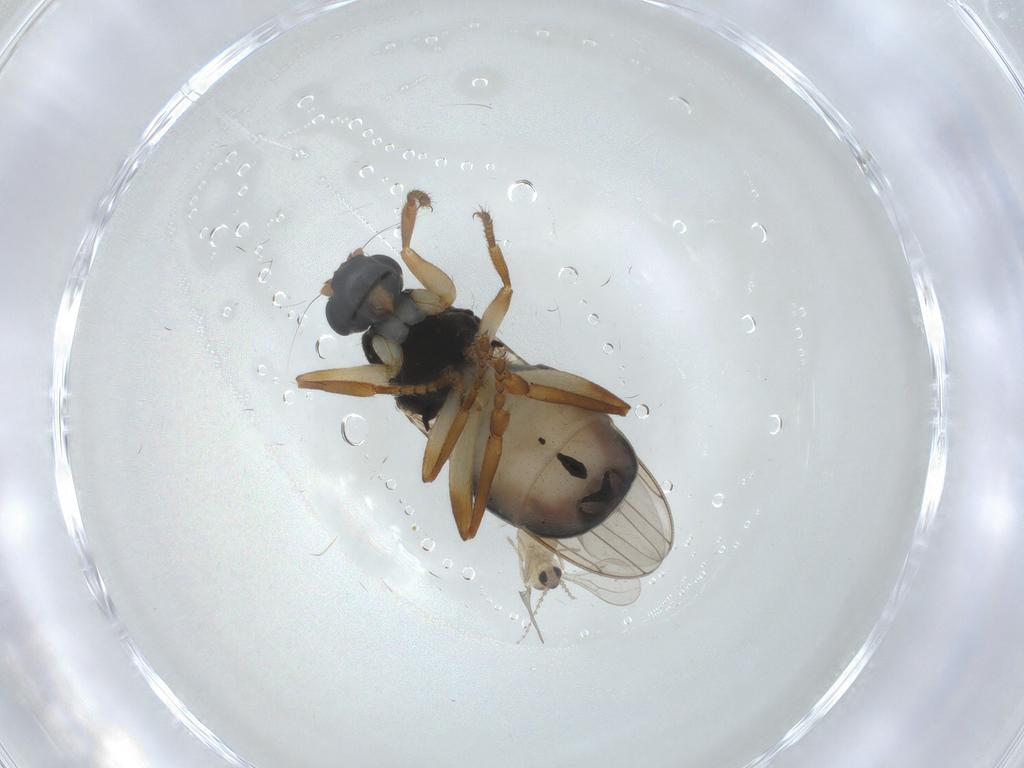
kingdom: Animalia
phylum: Arthropoda
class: Insecta
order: Diptera
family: Cecidomyiidae
